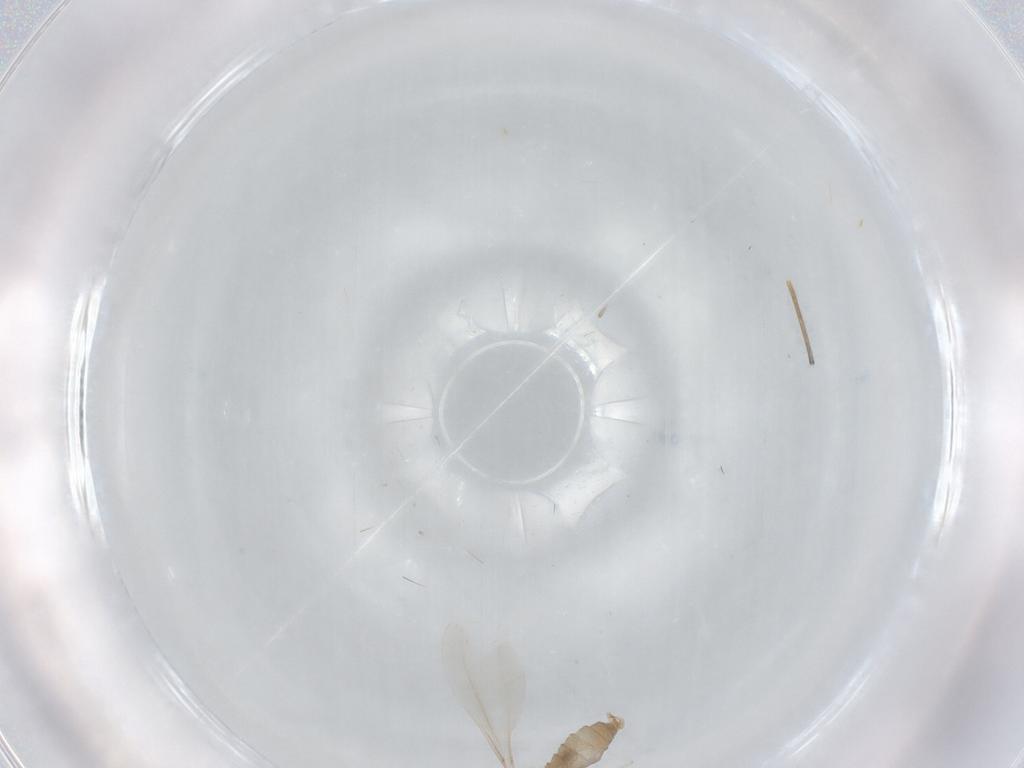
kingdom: Animalia
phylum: Arthropoda
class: Insecta
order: Diptera
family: Cecidomyiidae
